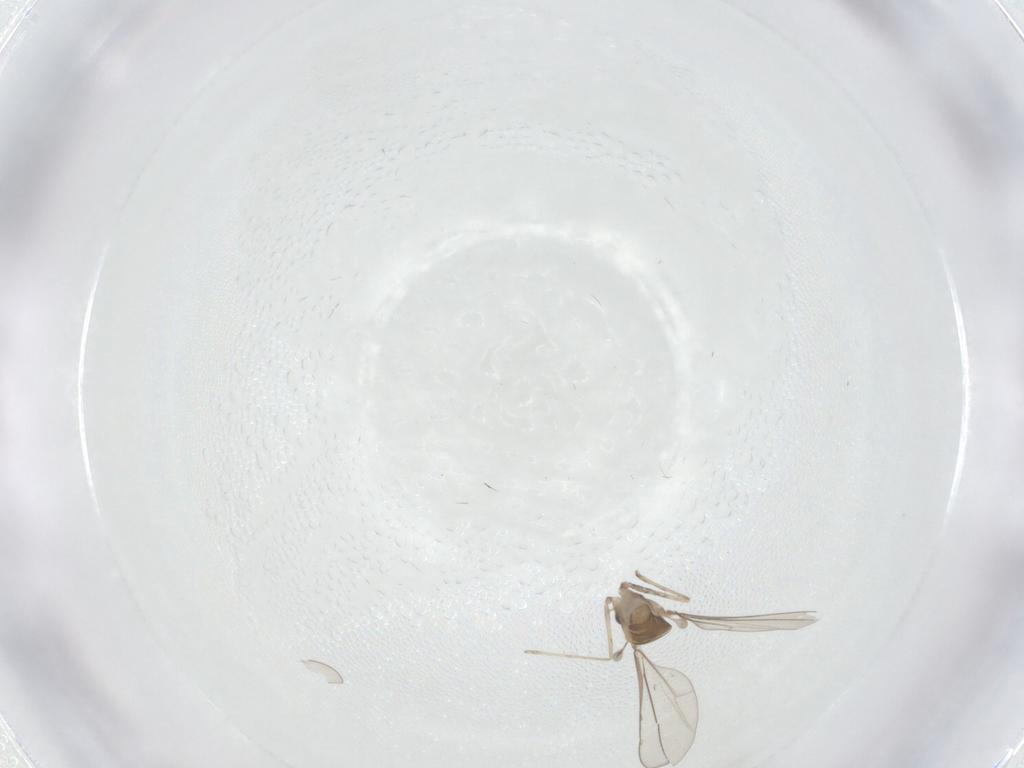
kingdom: Animalia
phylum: Arthropoda
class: Insecta
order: Diptera
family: Cecidomyiidae
